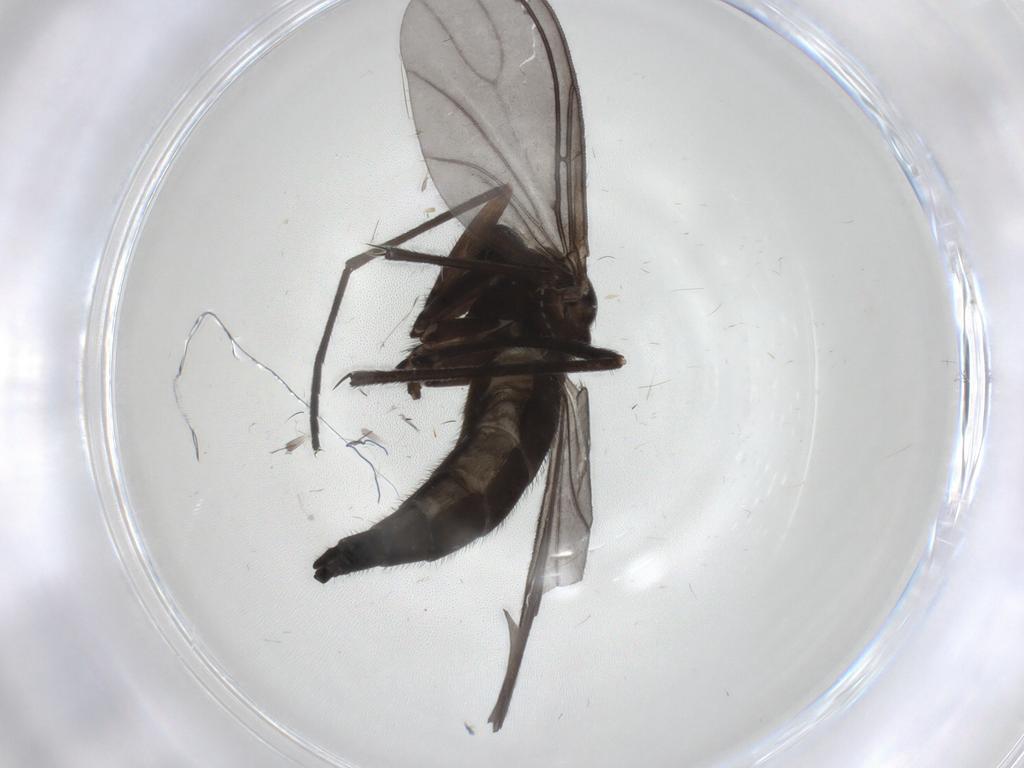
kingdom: Animalia
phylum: Arthropoda
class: Insecta
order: Diptera
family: Sciaridae
